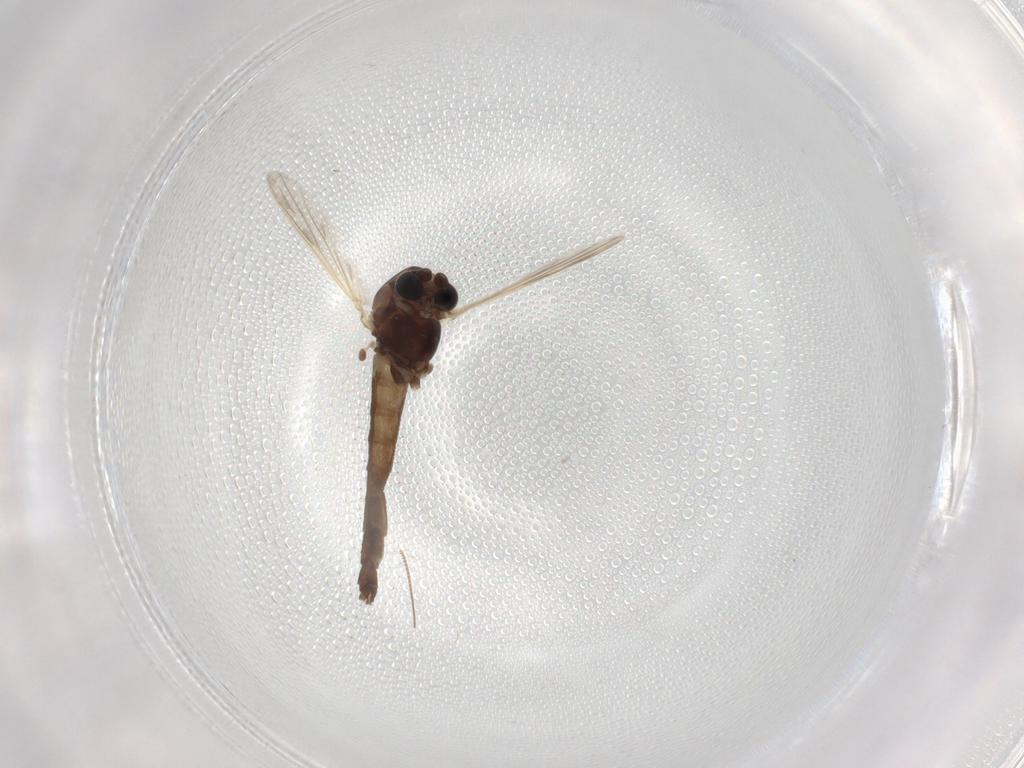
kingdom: Animalia
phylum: Arthropoda
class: Insecta
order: Diptera
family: Chironomidae
